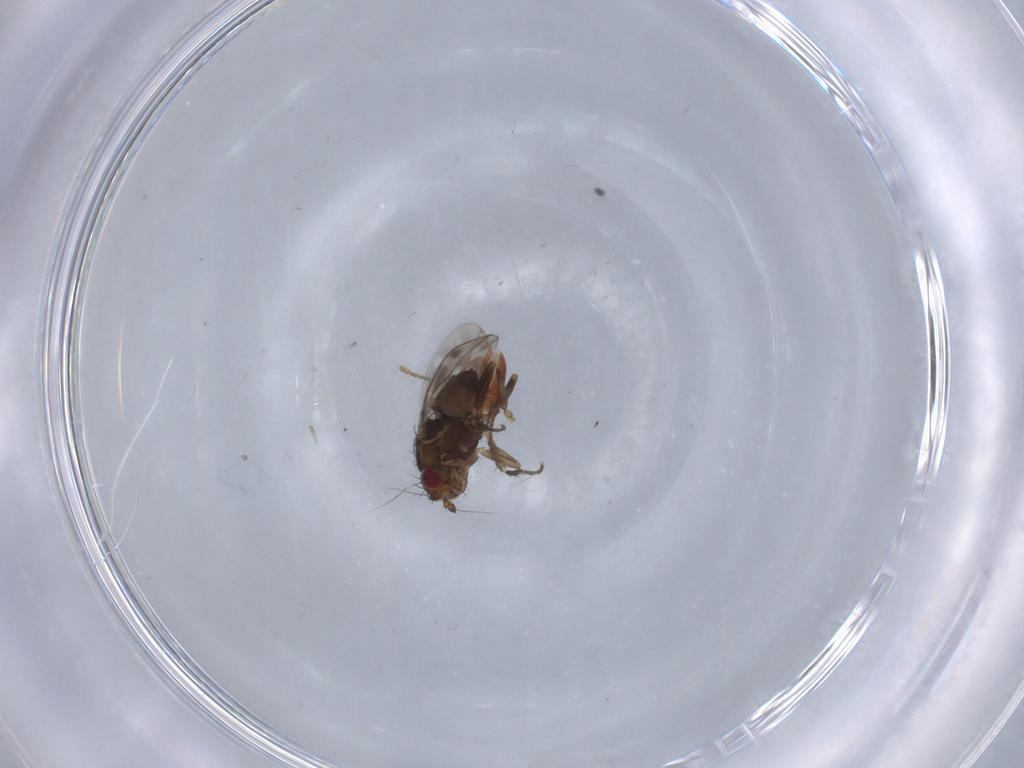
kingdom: Animalia
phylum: Arthropoda
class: Insecta
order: Diptera
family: Sphaeroceridae
